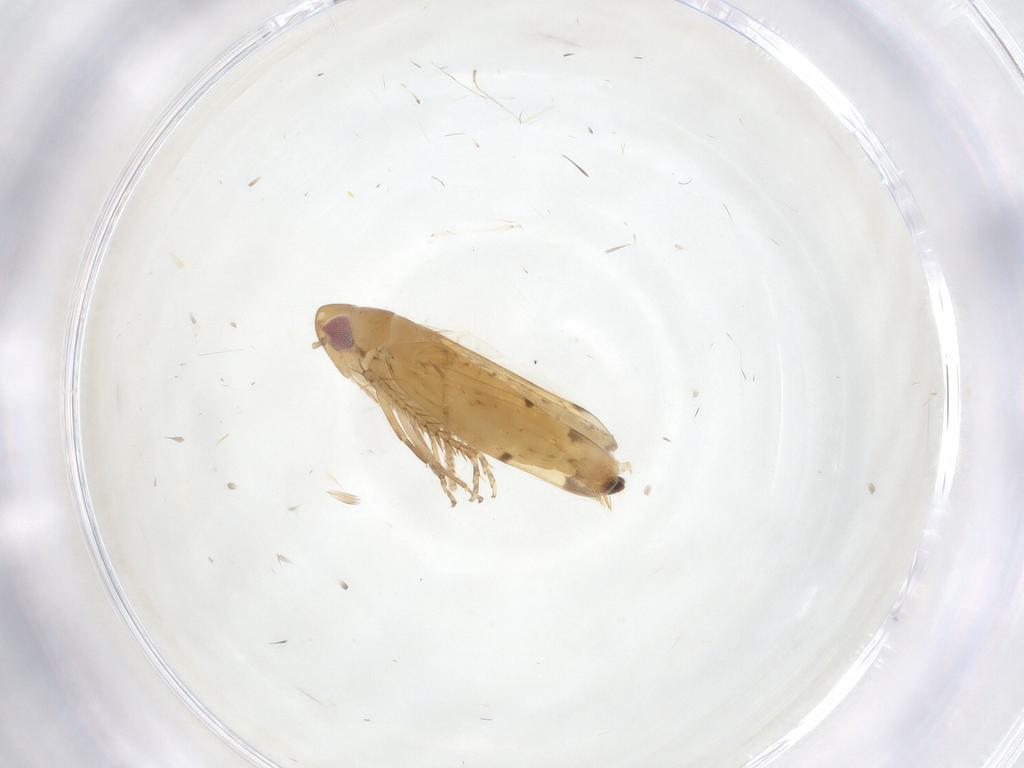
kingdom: Animalia
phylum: Arthropoda
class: Insecta
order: Hemiptera
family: Cicadellidae
